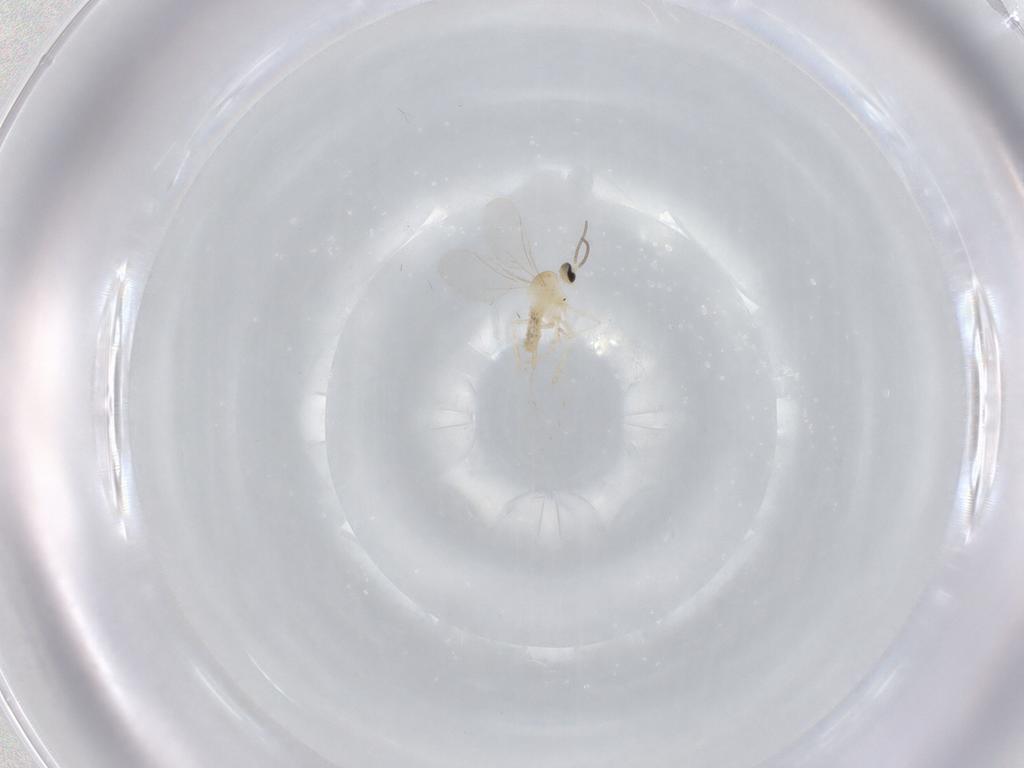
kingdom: Animalia
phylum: Arthropoda
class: Insecta
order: Diptera
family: Cecidomyiidae
